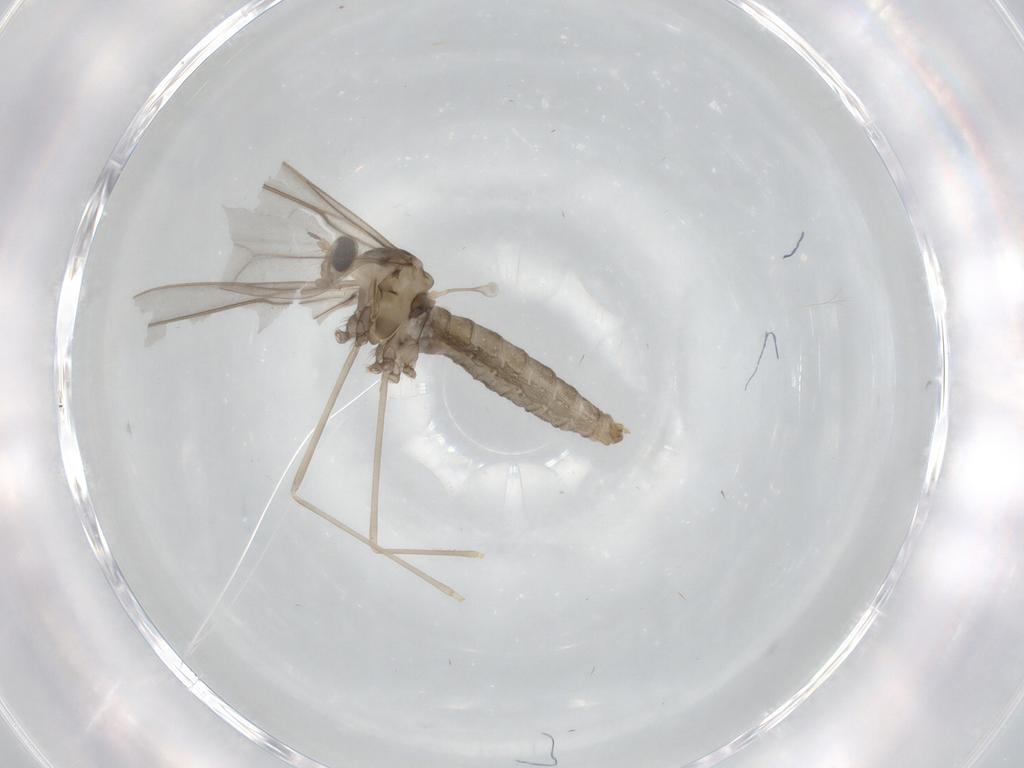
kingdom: Animalia
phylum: Arthropoda
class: Insecta
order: Diptera
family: Cecidomyiidae
